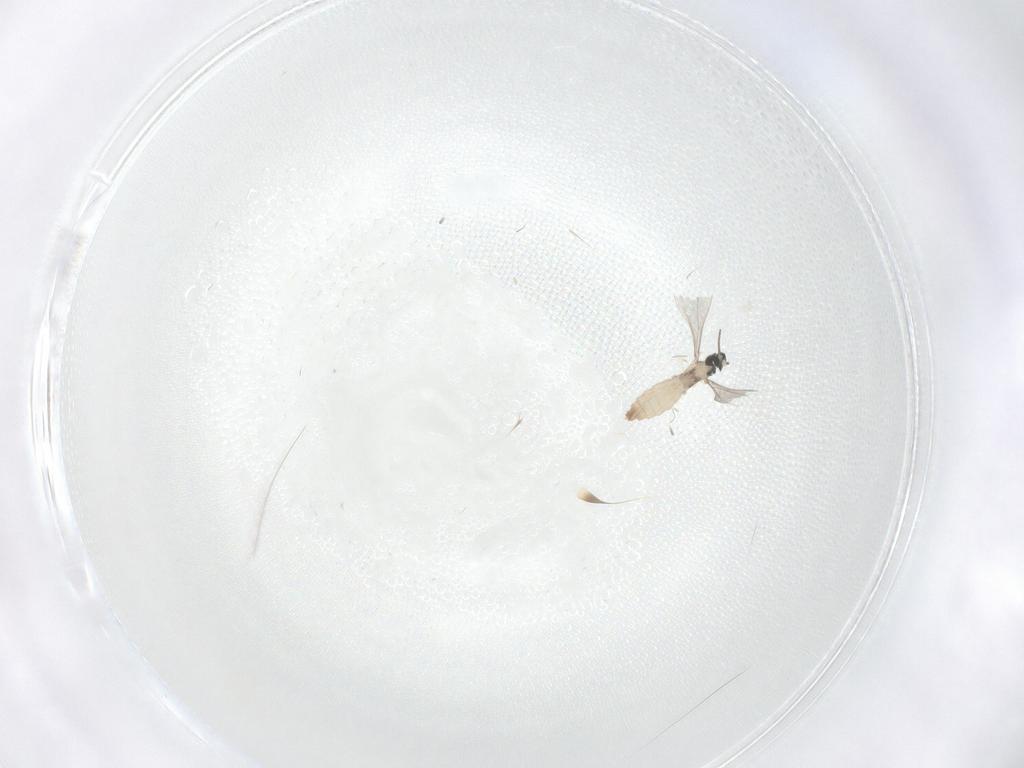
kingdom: Animalia
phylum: Arthropoda
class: Insecta
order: Diptera
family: Cecidomyiidae
